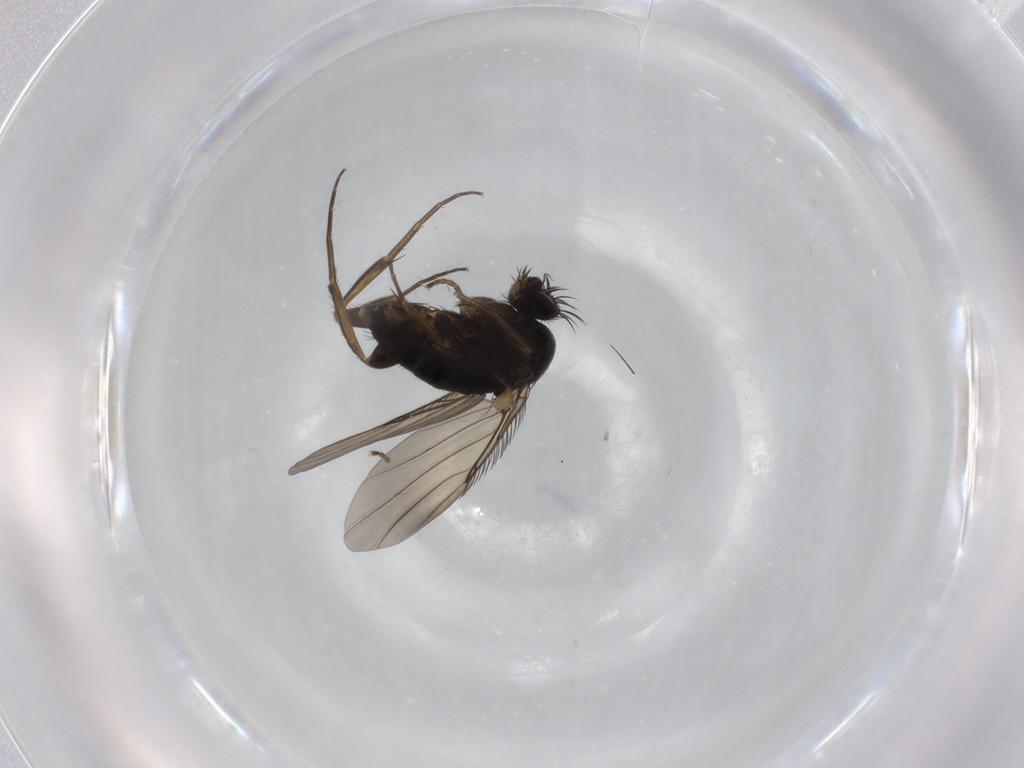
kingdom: Animalia
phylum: Arthropoda
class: Insecta
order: Diptera
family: Phoridae
